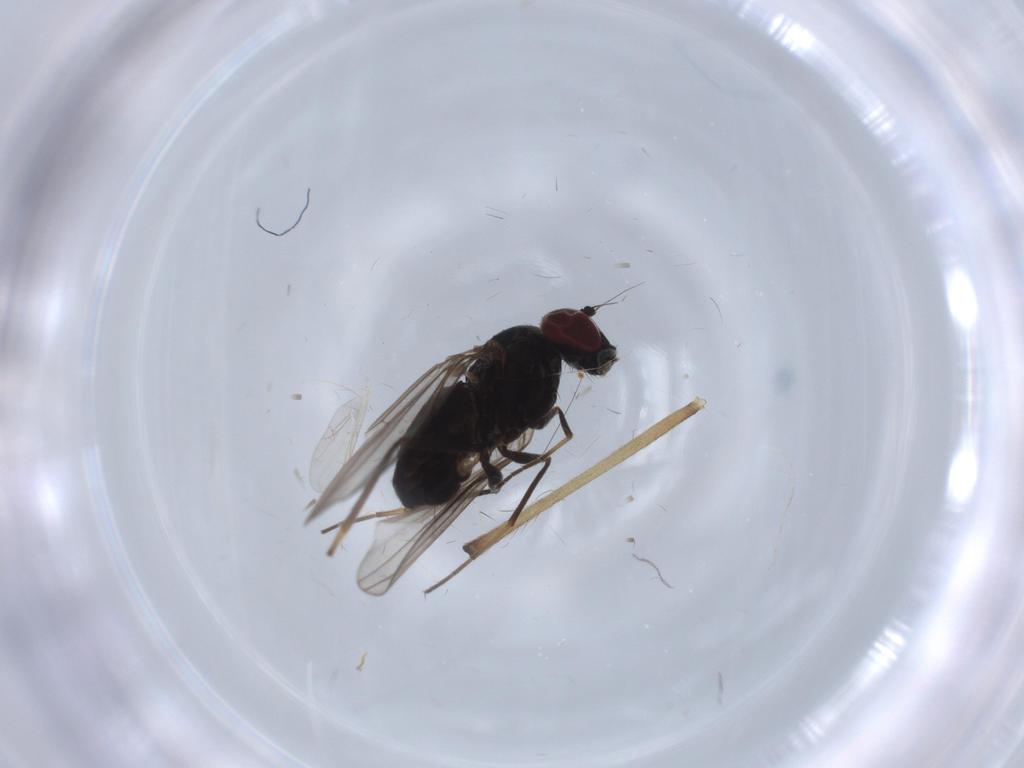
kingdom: Animalia
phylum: Arthropoda
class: Insecta
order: Diptera
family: Dolichopodidae
